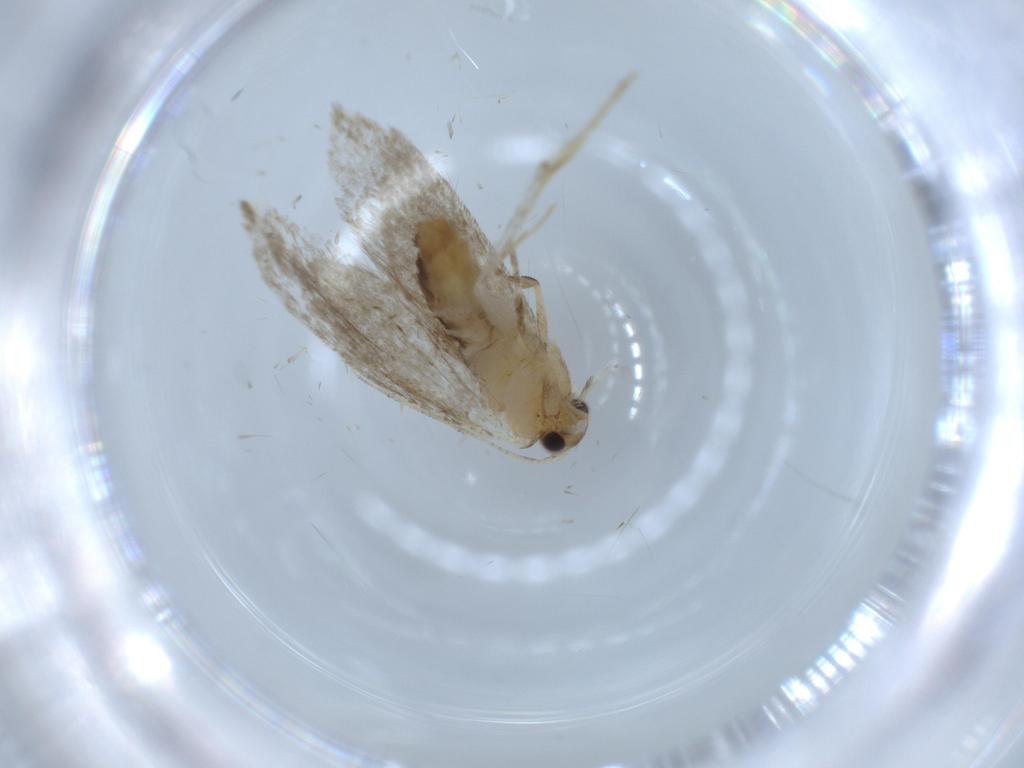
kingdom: Animalia
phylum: Arthropoda
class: Insecta
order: Lepidoptera
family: Tineidae
